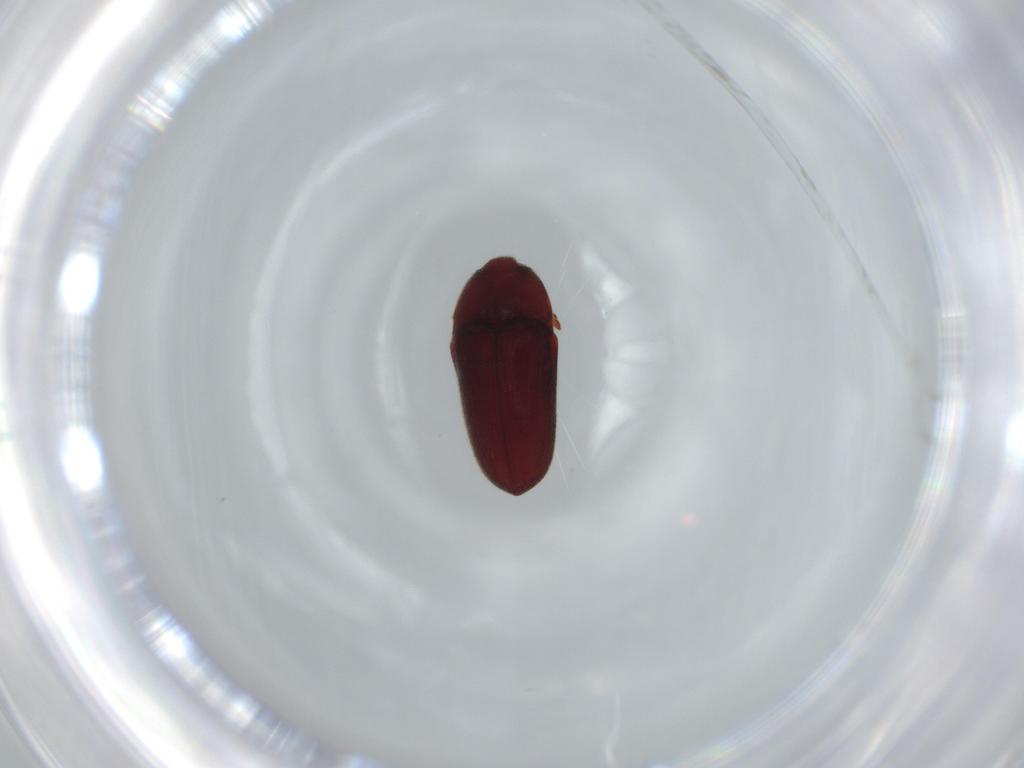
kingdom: Animalia
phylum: Arthropoda
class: Insecta
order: Coleoptera
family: Throscidae
